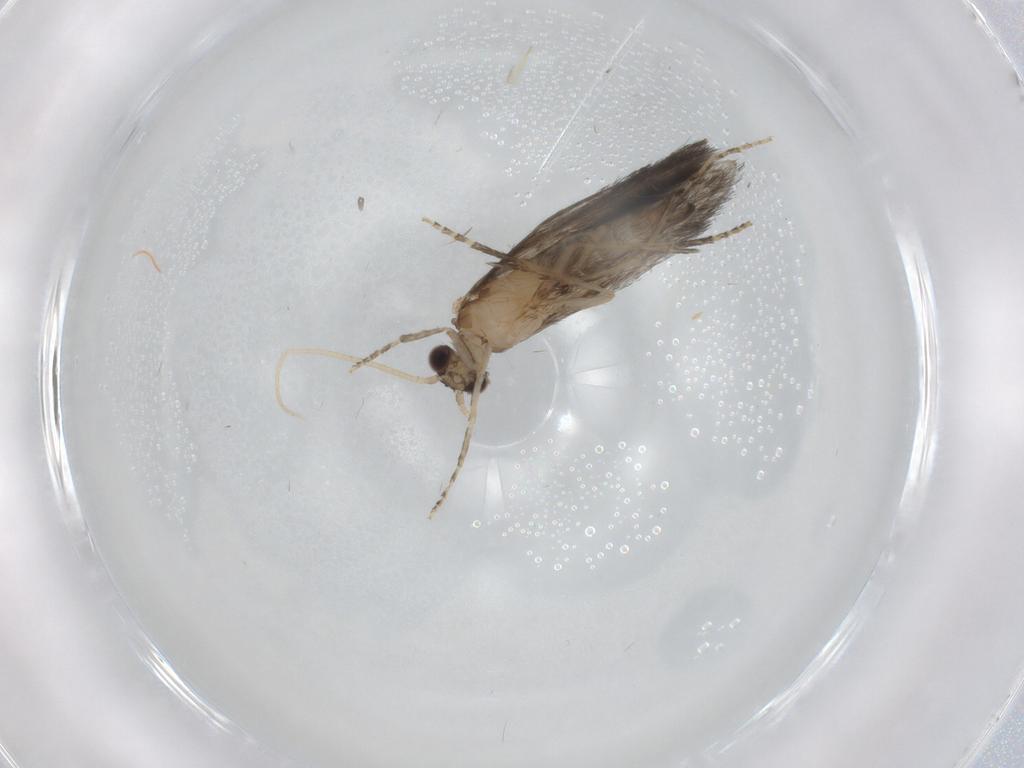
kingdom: Animalia
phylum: Arthropoda
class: Insecta
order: Trichoptera
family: Hydroptilidae
